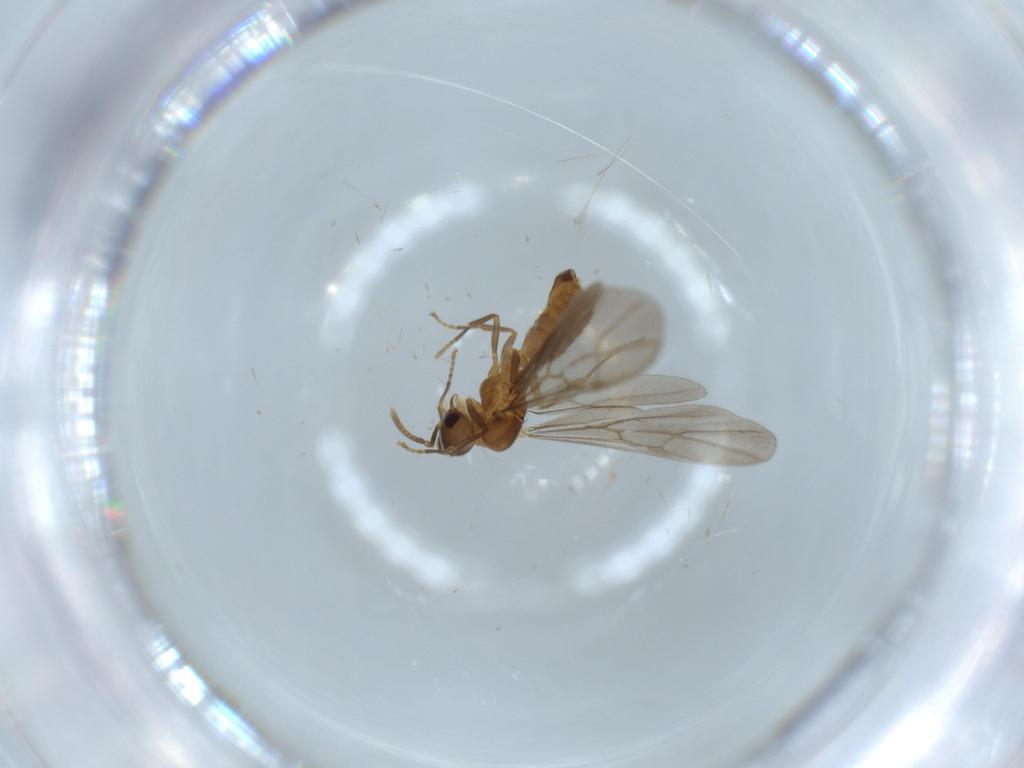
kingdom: Animalia
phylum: Arthropoda
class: Insecta
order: Hymenoptera
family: Formicidae
